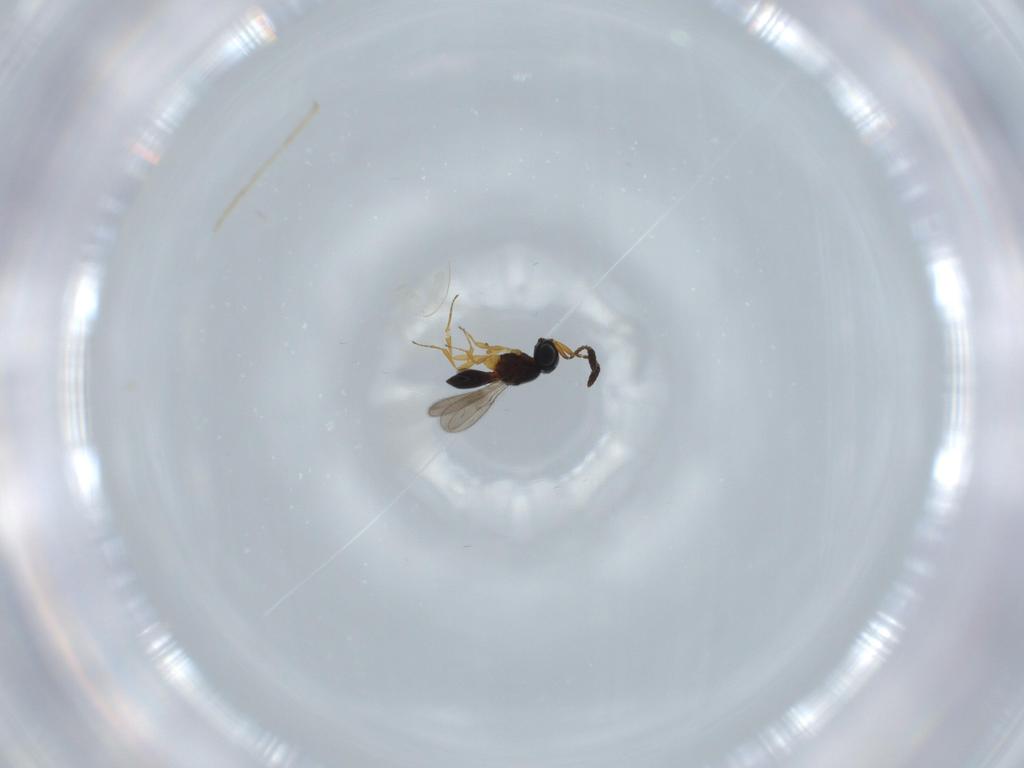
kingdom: Animalia
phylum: Arthropoda
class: Insecta
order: Hymenoptera
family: Scelionidae
